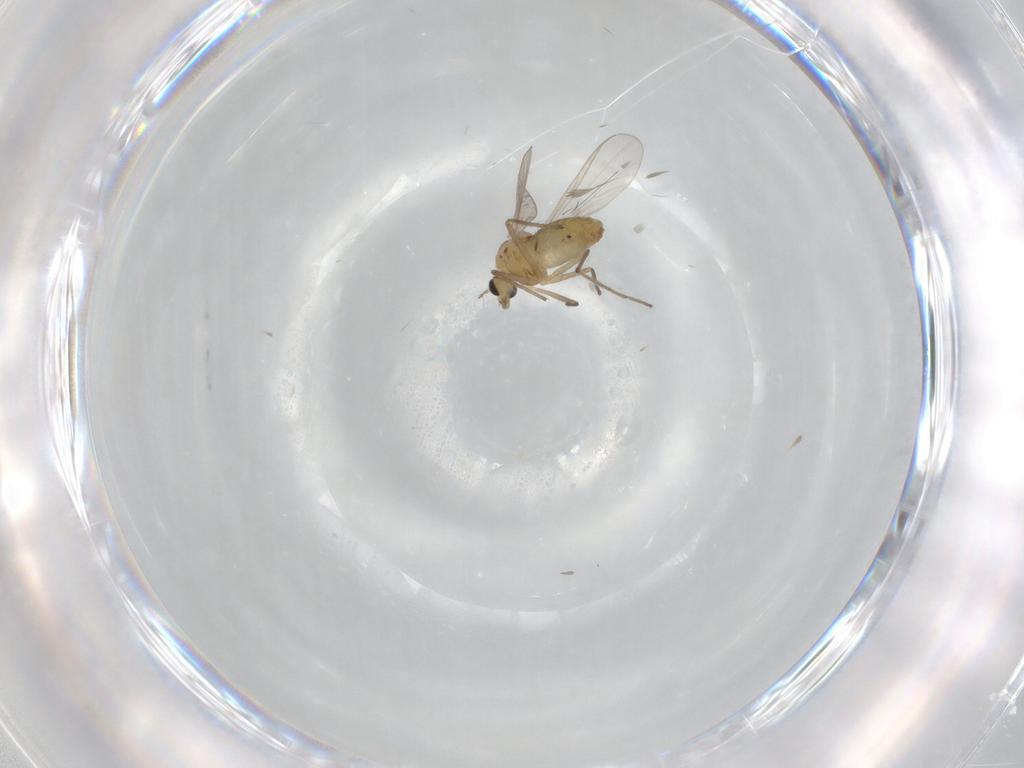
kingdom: Animalia
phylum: Arthropoda
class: Insecta
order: Diptera
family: Chironomidae
